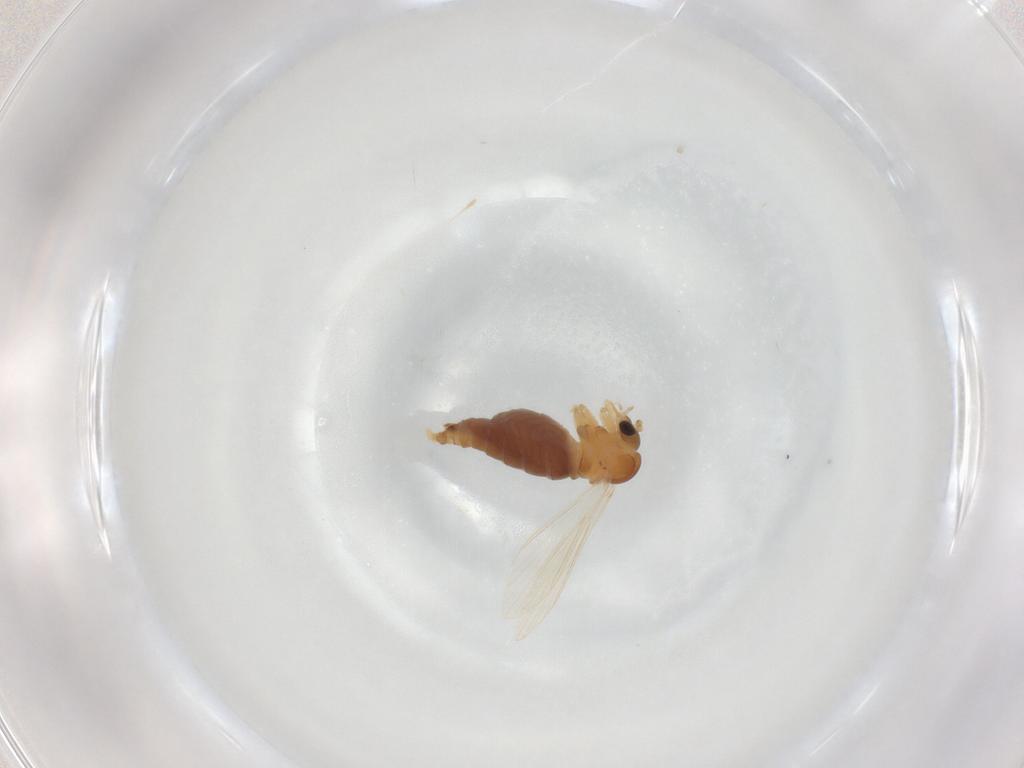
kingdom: Animalia
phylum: Arthropoda
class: Insecta
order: Diptera
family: Psychodidae
